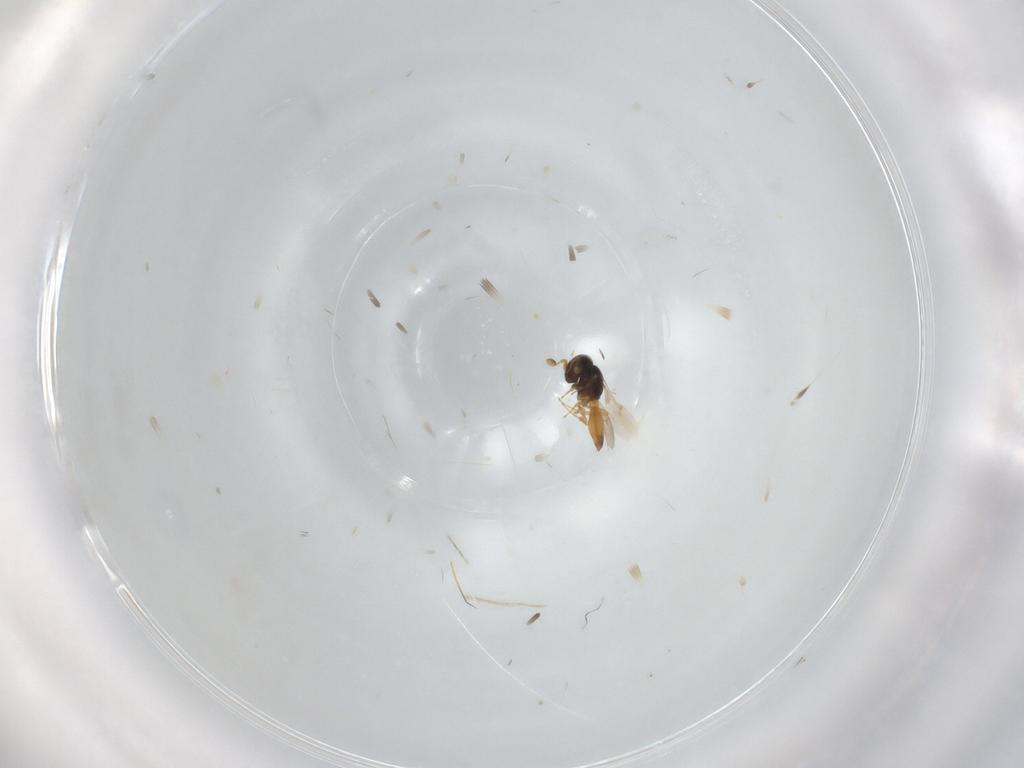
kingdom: Animalia
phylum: Arthropoda
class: Insecta
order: Hymenoptera
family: Scelionidae
